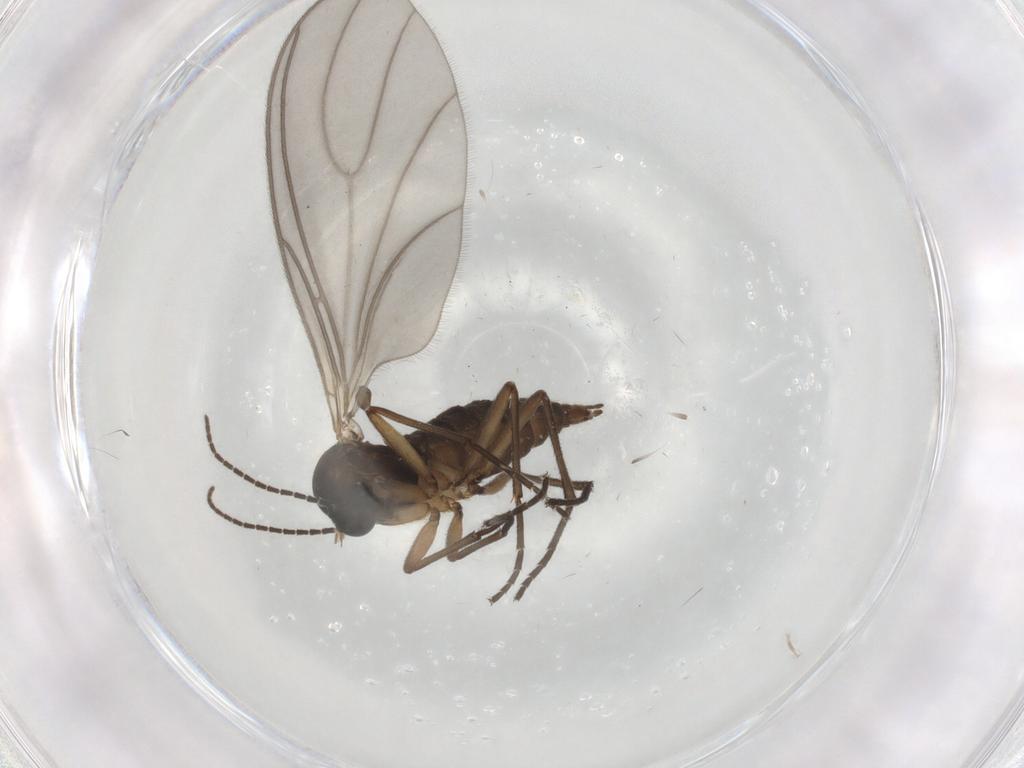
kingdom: Animalia
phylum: Arthropoda
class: Insecta
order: Diptera
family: Sciaridae
